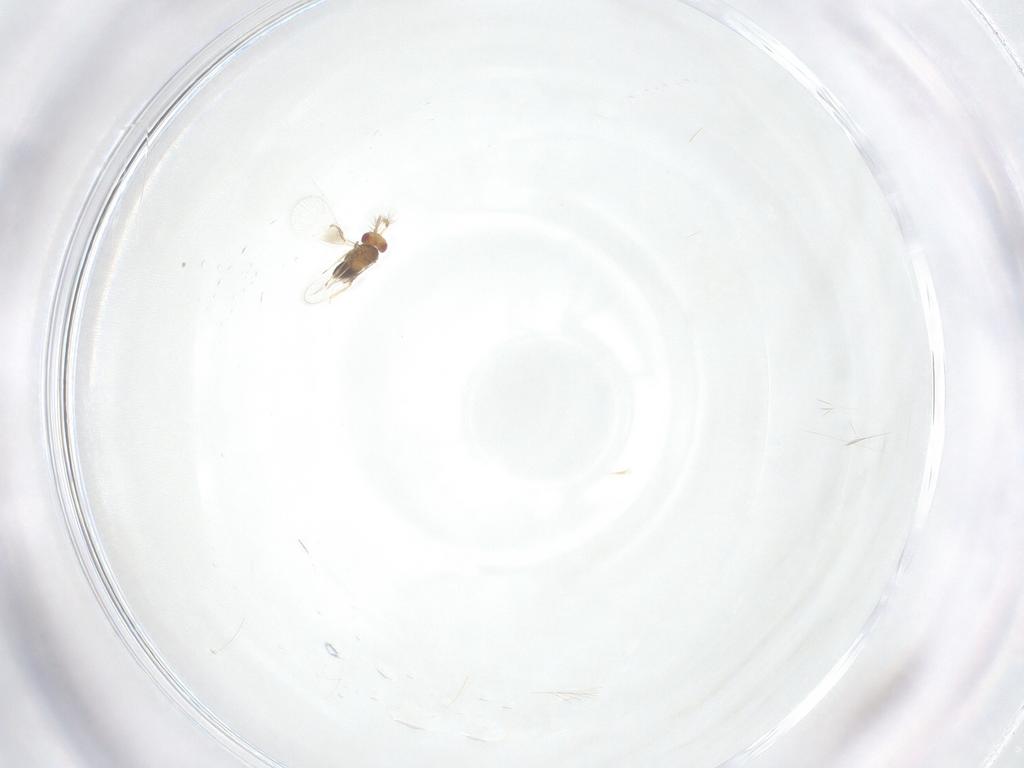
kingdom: Animalia
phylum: Arthropoda
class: Insecta
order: Hymenoptera
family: Trichogrammatidae
